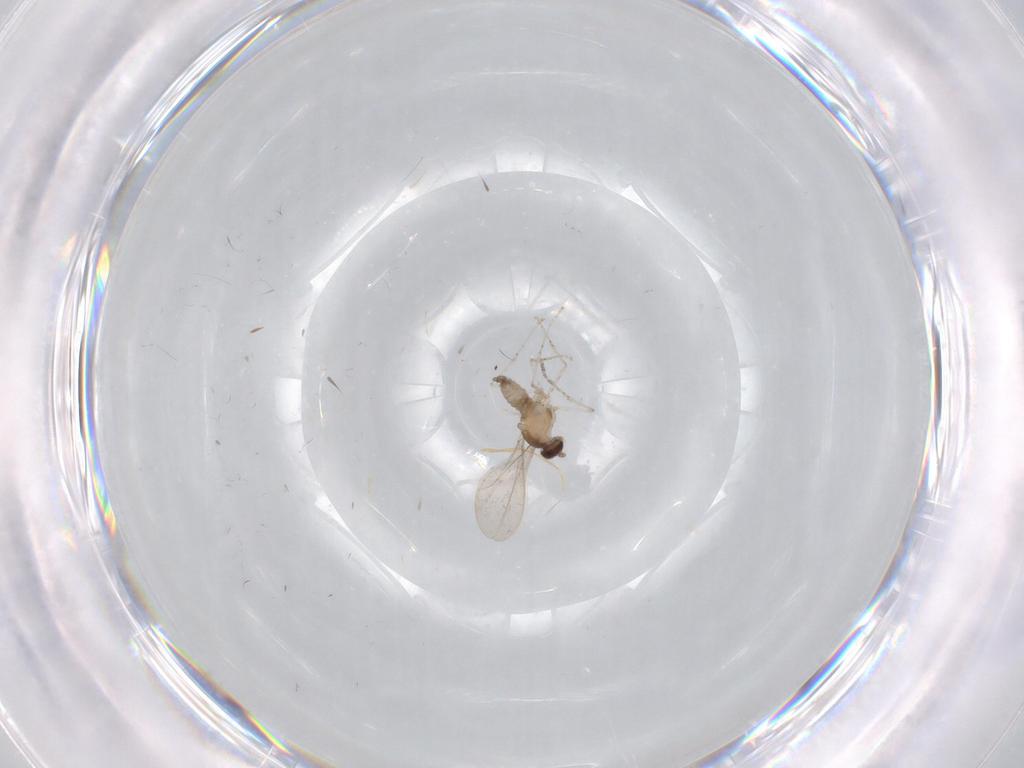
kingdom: Animalia
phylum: Arthropoda
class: Insecta
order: Diptera
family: Cecidomyiidae
